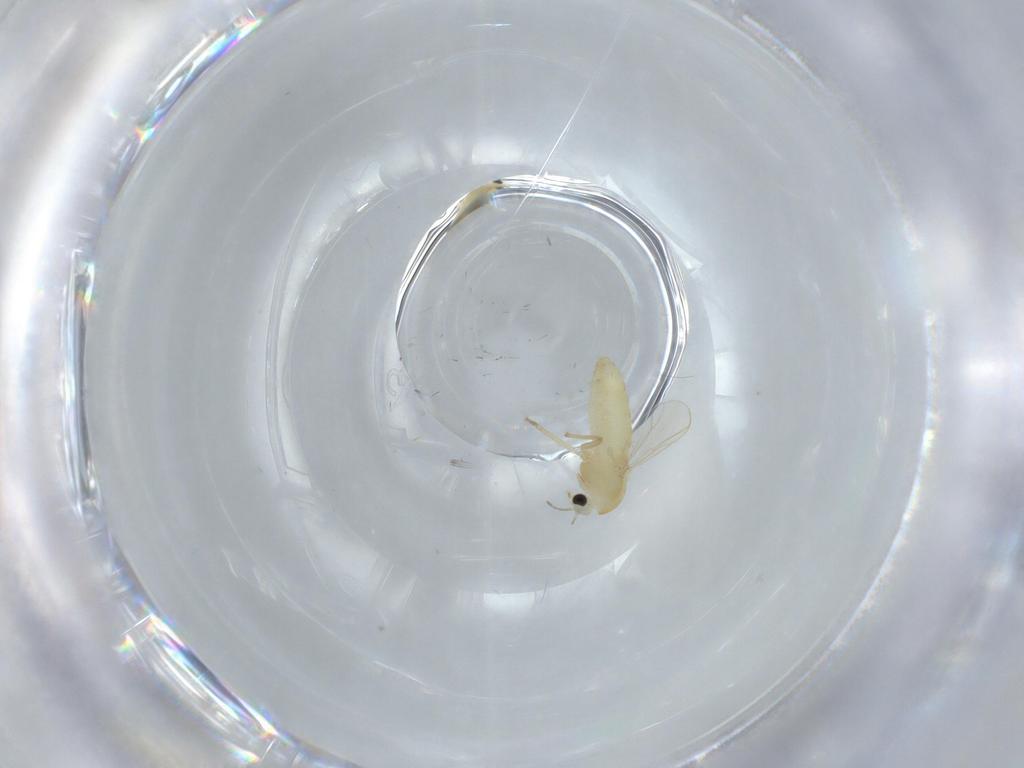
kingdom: Animalia
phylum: Arthropoda
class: Insecta
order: Diptera
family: Chironomidae
